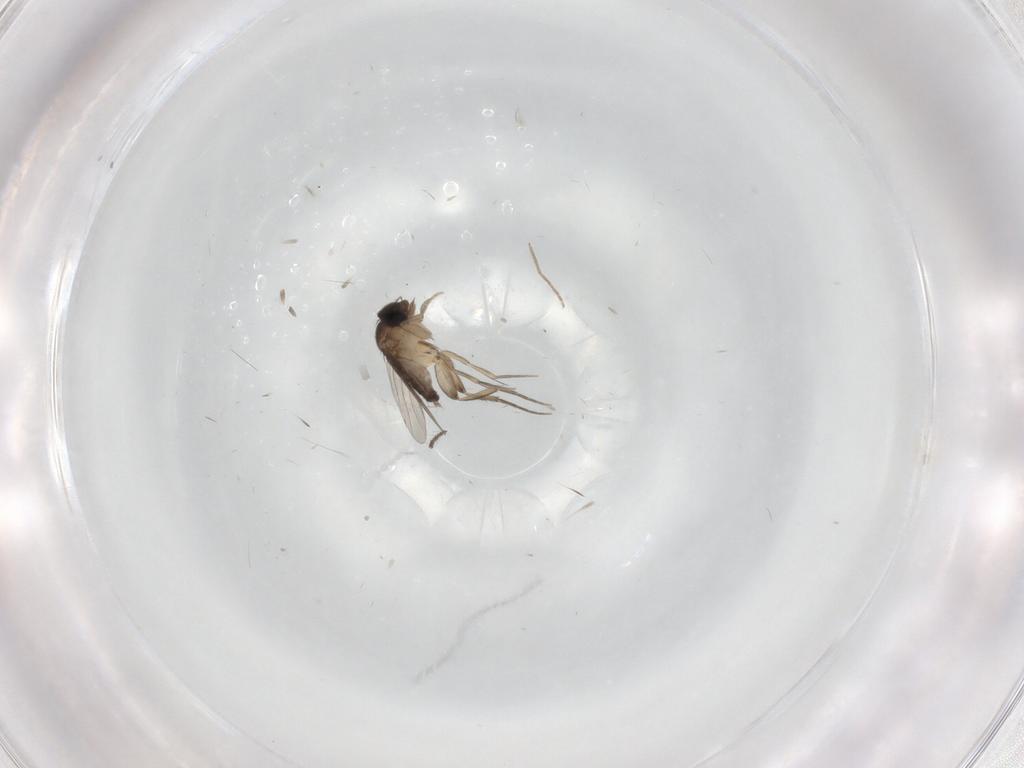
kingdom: Animalia
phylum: Arthropoda
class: Insecta
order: Diptera
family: Phoridae
